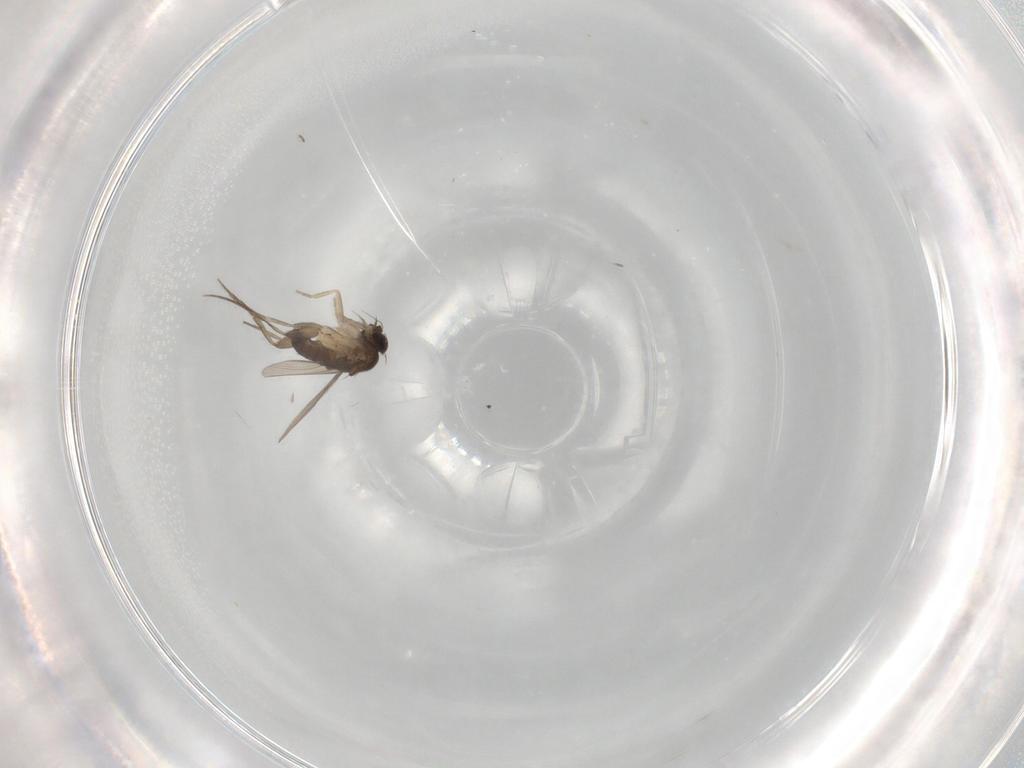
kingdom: Animalia
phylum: Arthropoda
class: Insecta
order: Diptera
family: Phoridae
